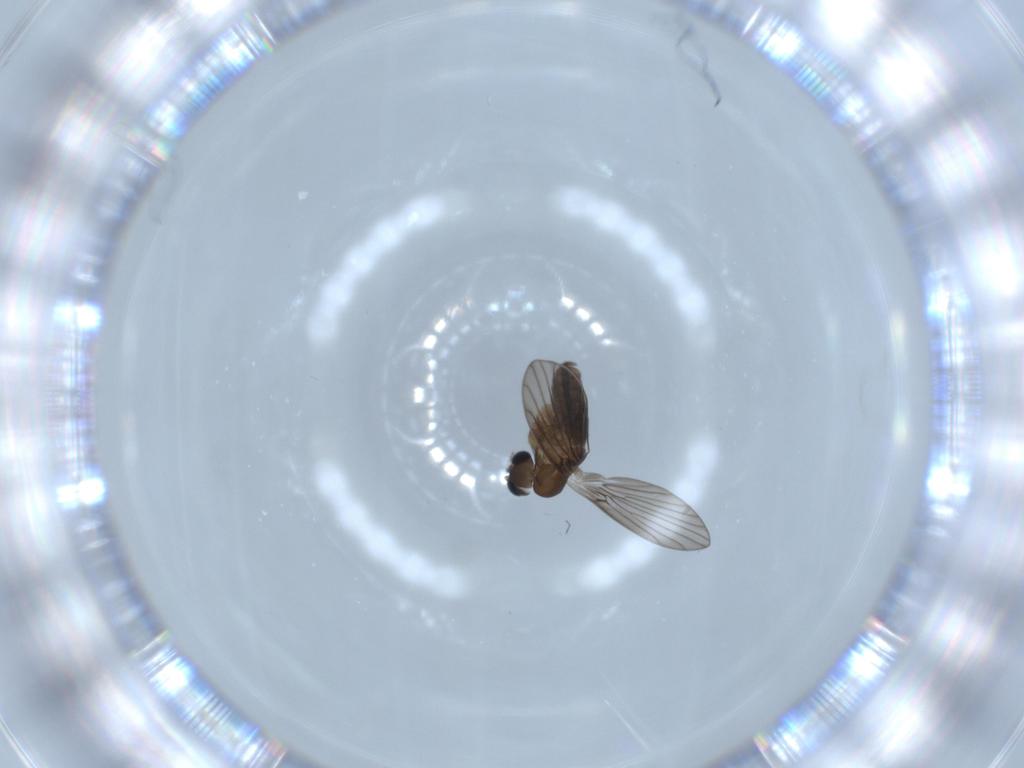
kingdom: Animalia
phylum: Arthropoda
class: Insecta
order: Diptera
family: Psychodidae
